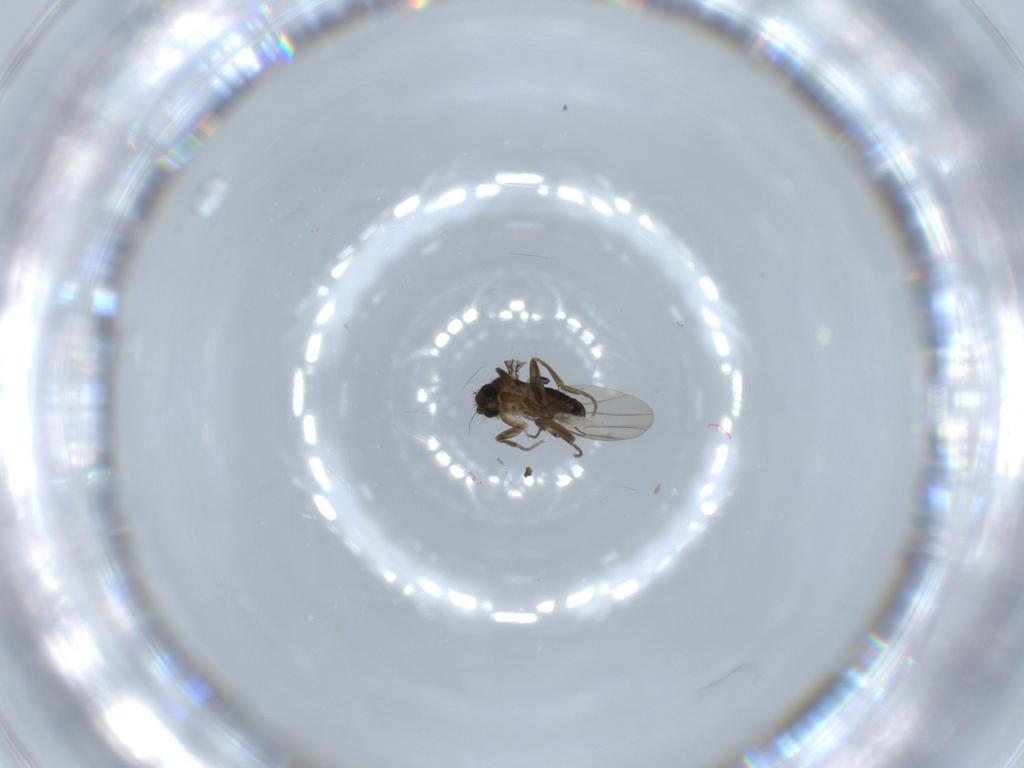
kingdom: Animalia
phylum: Arthropoda
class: Insecta
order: Diptera
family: Phoridae
